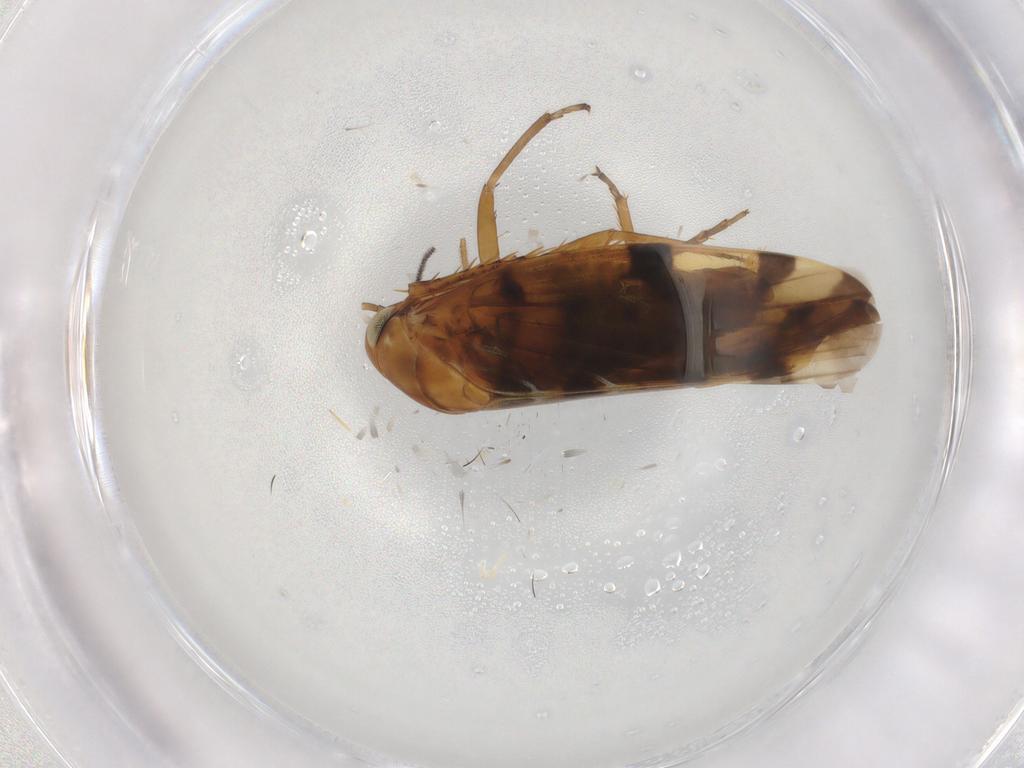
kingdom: Animalia
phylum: Arthropoda
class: Insecta
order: Hemiptera
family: Cicadellidae
